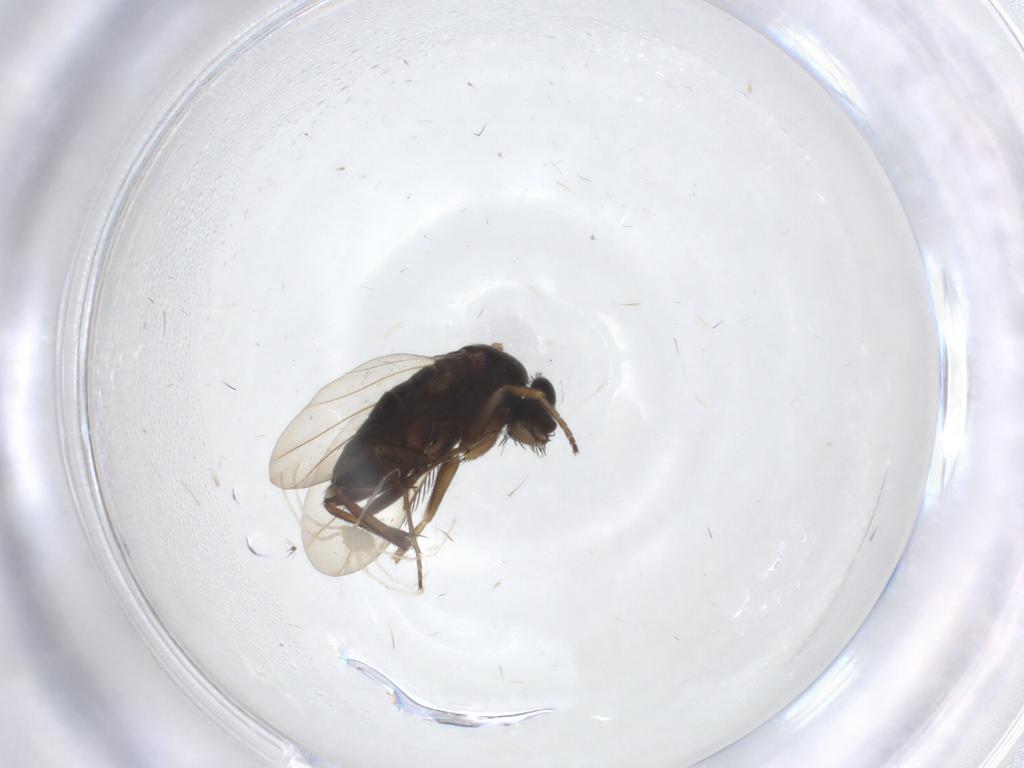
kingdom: Animalia
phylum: Arthropoda
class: Insecta
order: Diptera
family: Phoridae
